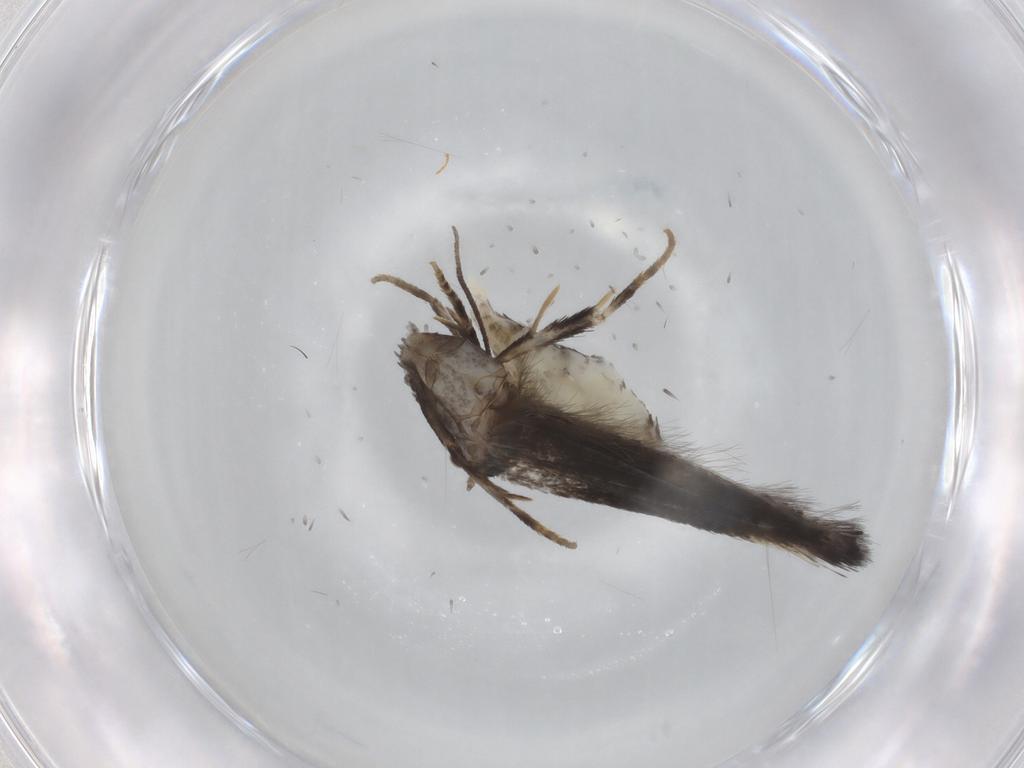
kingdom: Animalia
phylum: Arthropoda
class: Insecta
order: Lepidoptera
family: Geometridae
